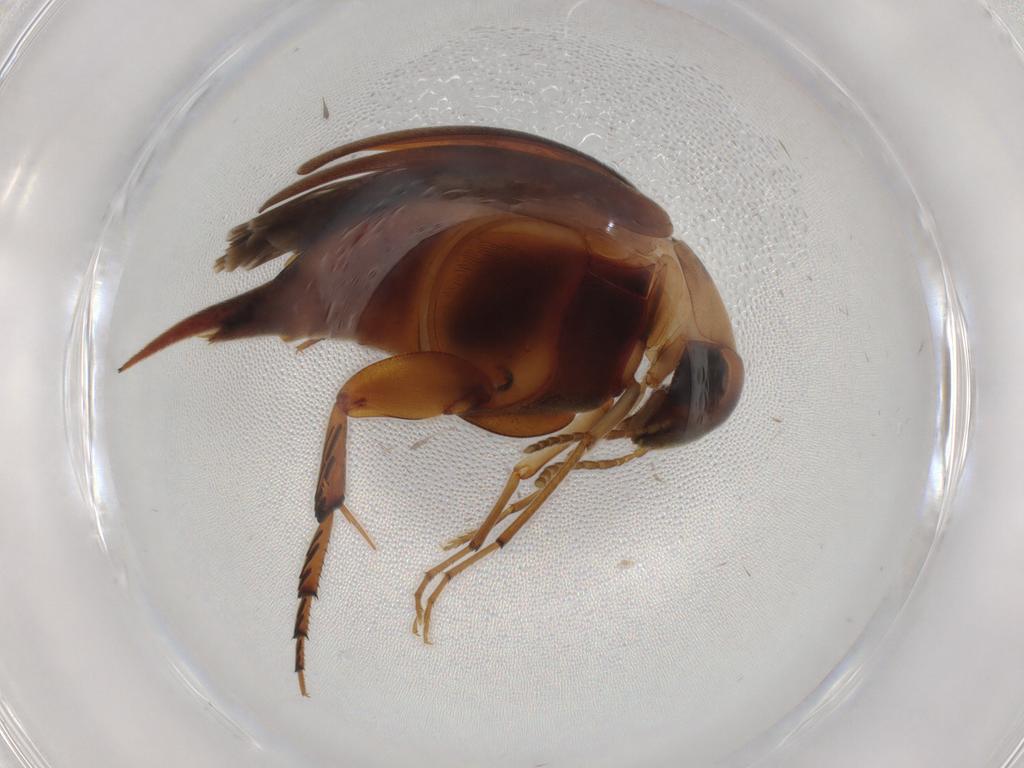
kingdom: Animalia
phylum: Arthropoda
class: Insecta
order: Coleoptera
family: Mordellidae
